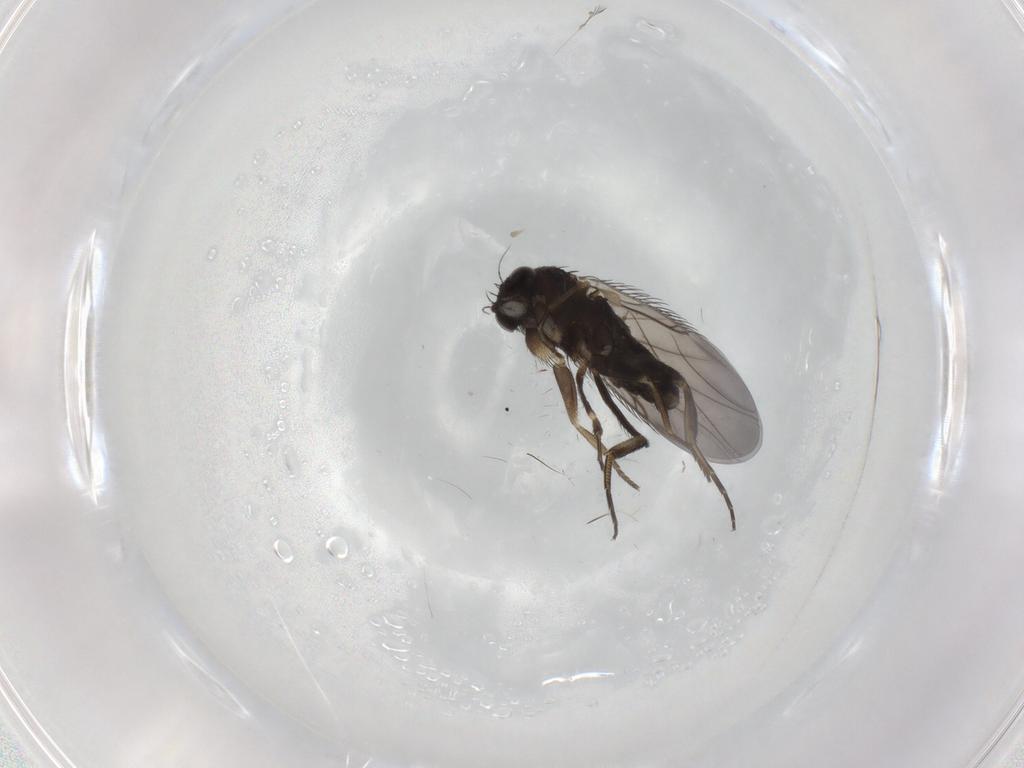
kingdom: Animalia
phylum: Arthropoda
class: Insecta
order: Diptera
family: Phoridae
